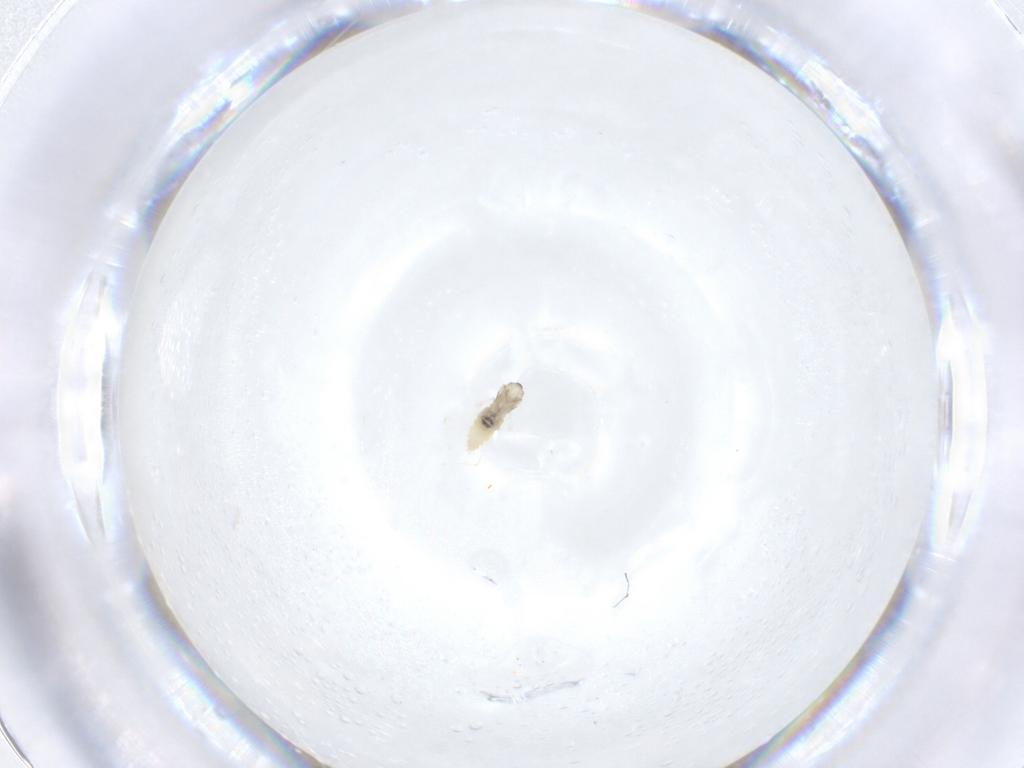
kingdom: Animalia
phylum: Arthropoda
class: Insecta
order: Diptera
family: Cecidomyiidae
